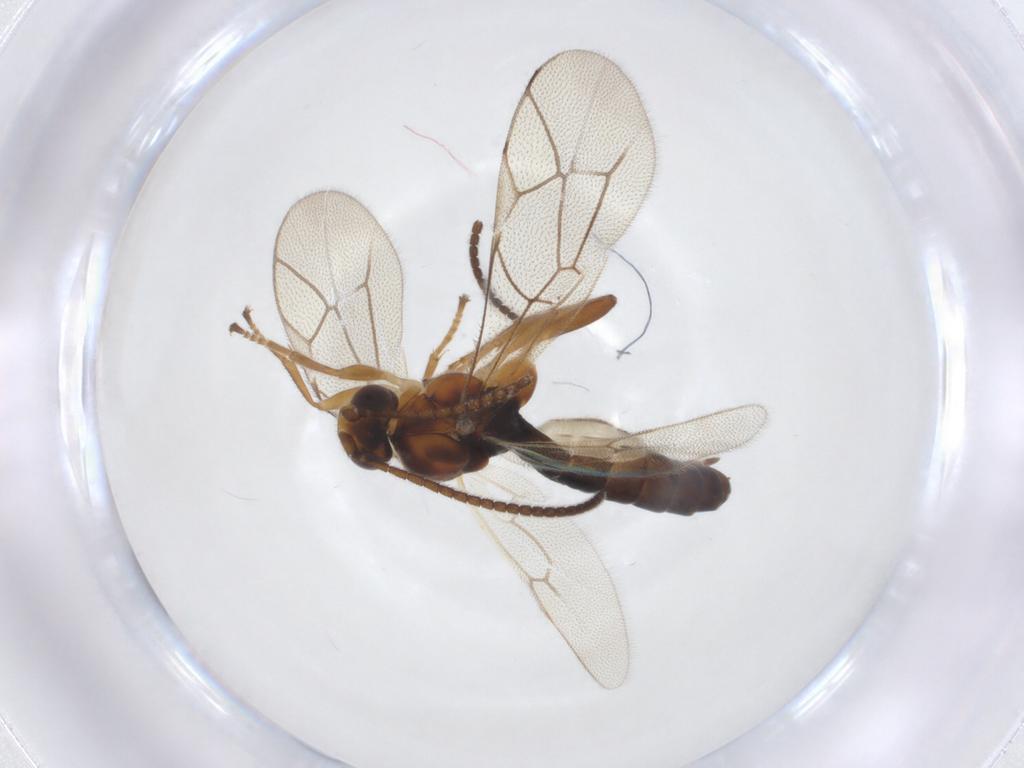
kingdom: Animalia
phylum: Arthropoda
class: Insecta
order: Hymenoptera
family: Ichneumonidae
